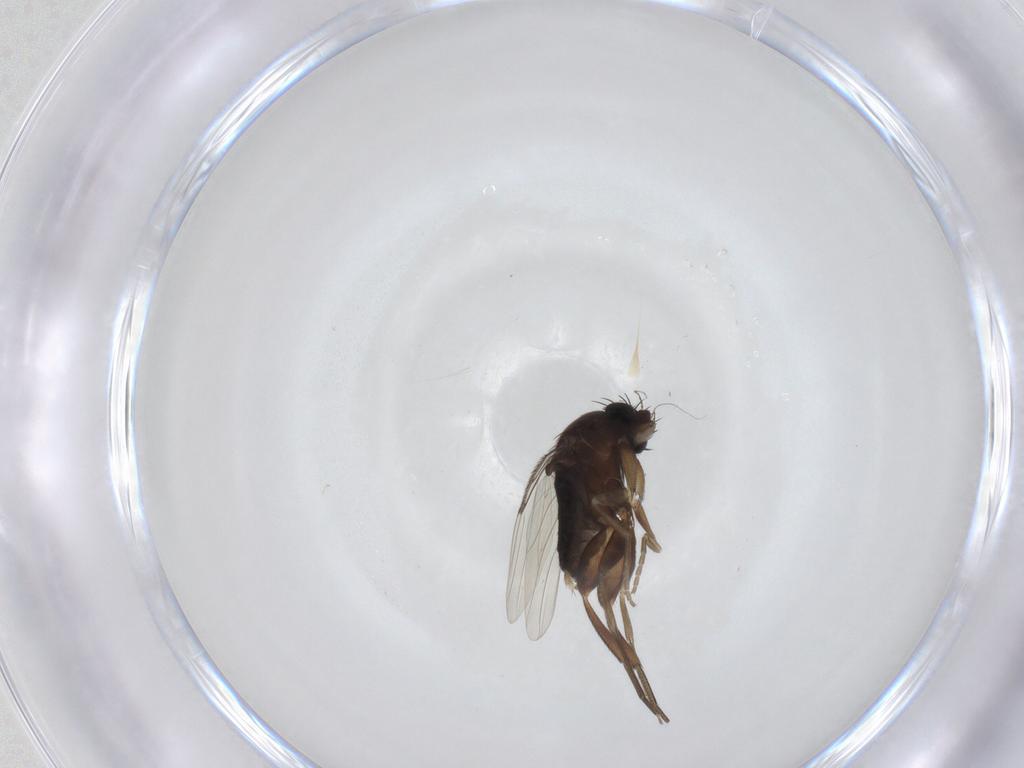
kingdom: Animalia
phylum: Arthropoda
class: Insecta
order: Diptera
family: Phoridae
